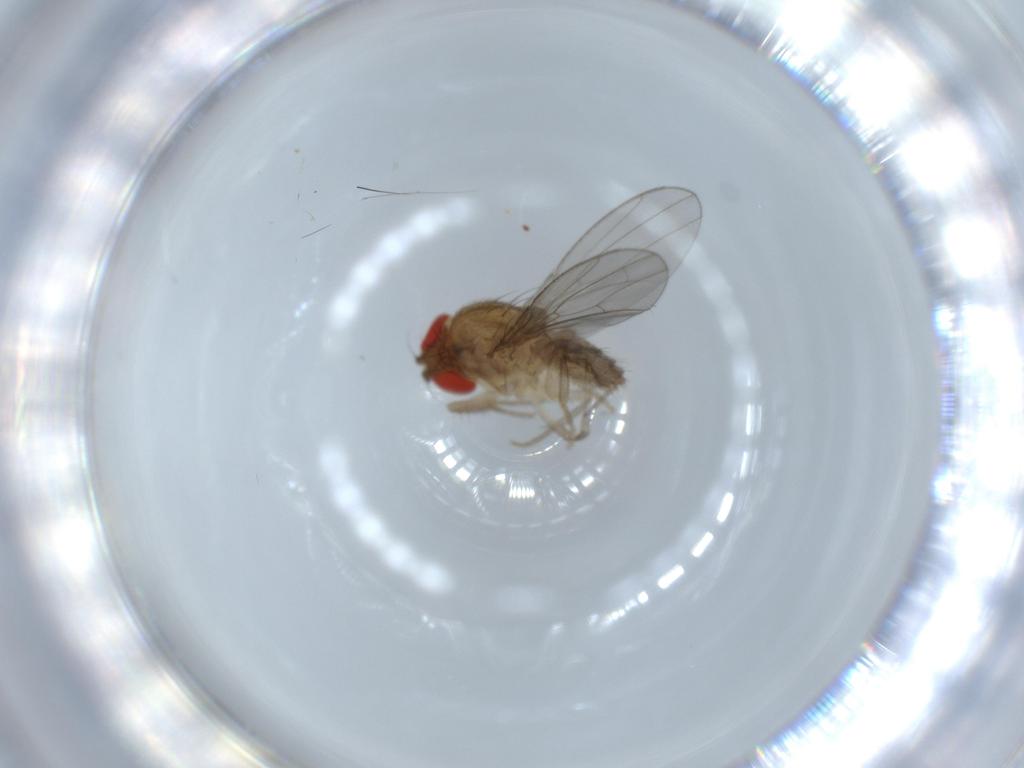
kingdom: Animalia
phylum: Arthropoda
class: Insecta
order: Diptera
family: Drosophilidae
